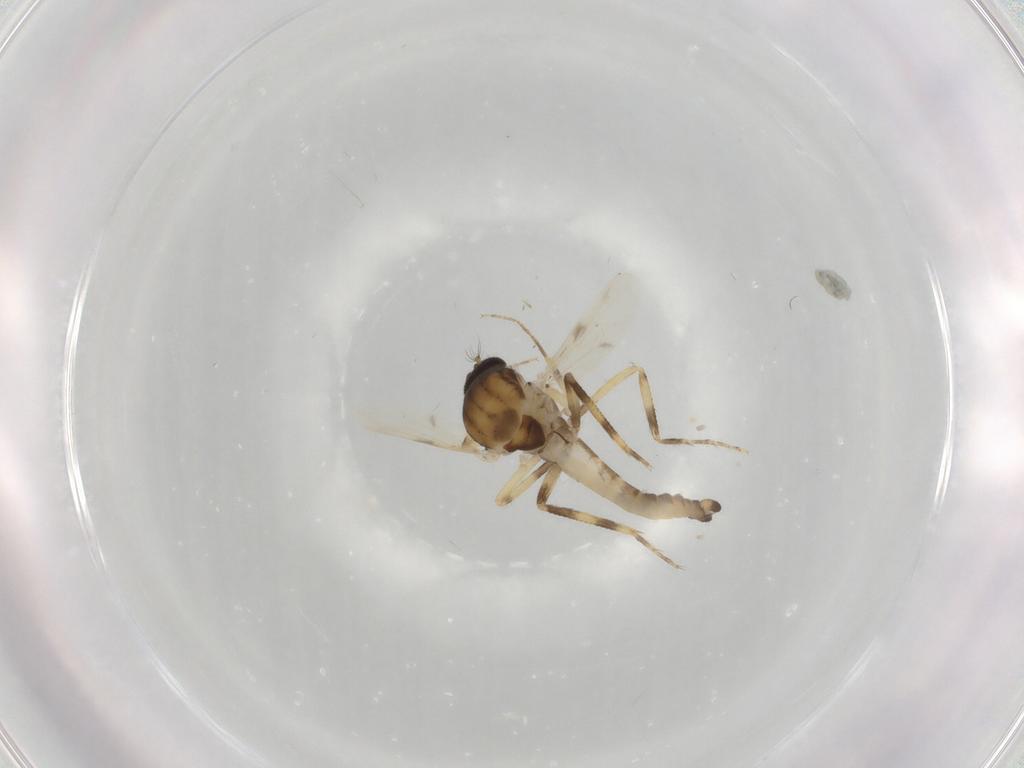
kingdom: Animalia
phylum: Arthropoda
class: Insecta
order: Diptera
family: Ceratopogonidae
